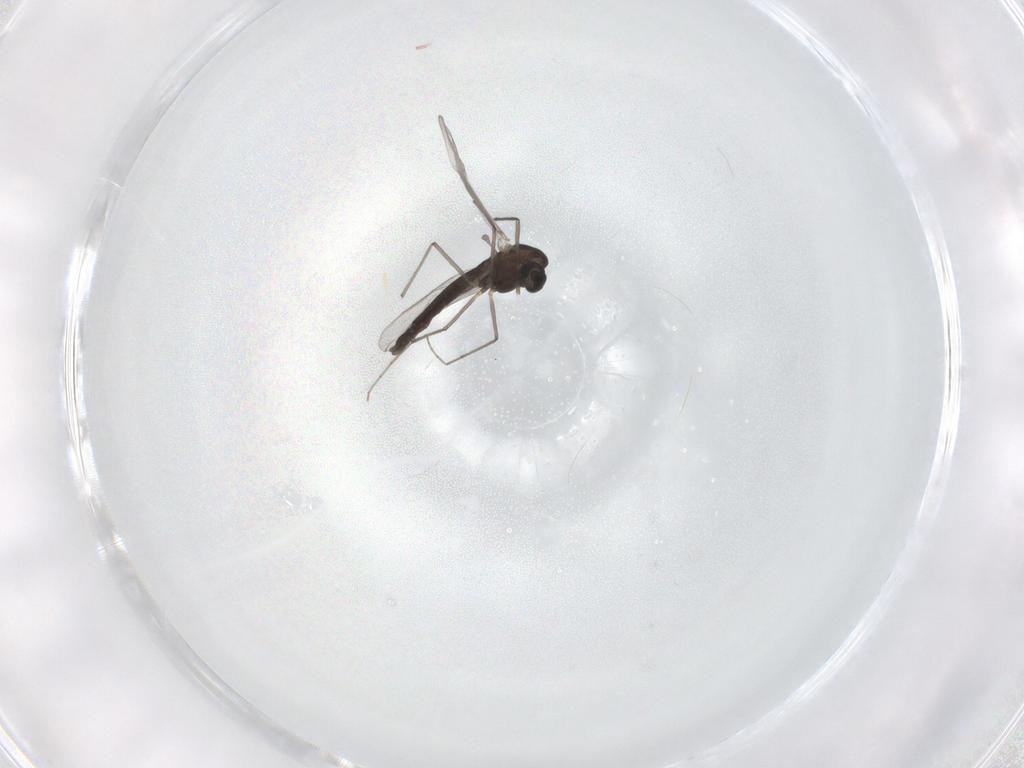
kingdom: Animalia
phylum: Arthropoda
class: Insecta
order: Diptera
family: Chironomidae
